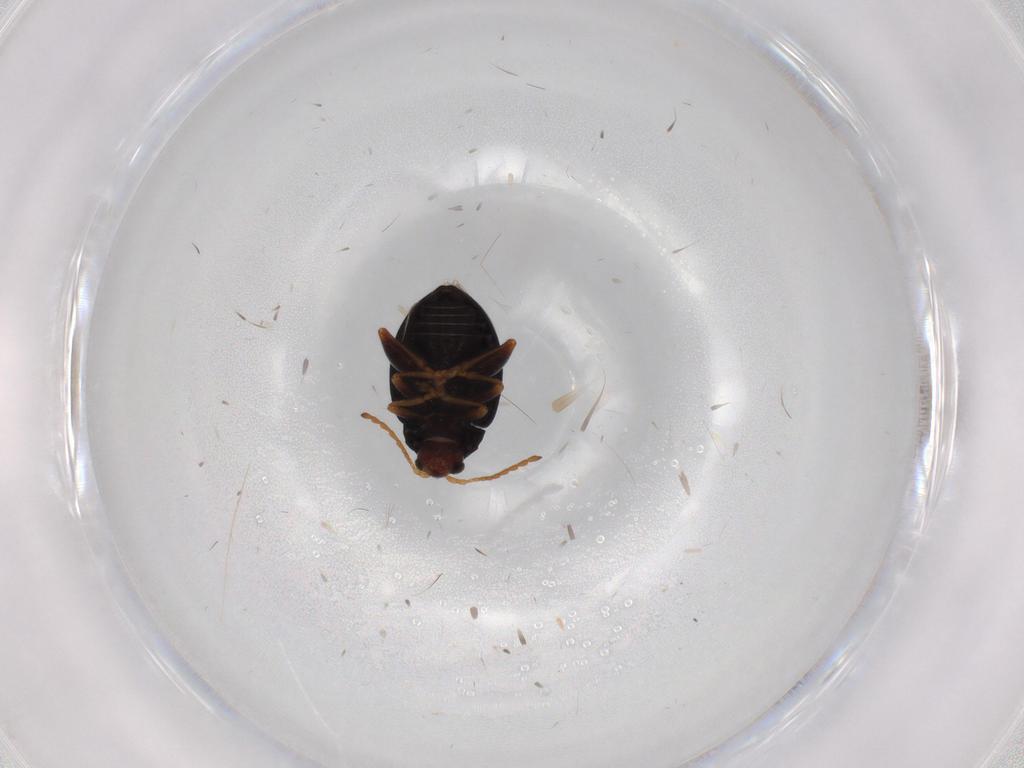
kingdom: Animalia
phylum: Arthropoda
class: Insecta
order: Coleoptera
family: Chrysomelidae
